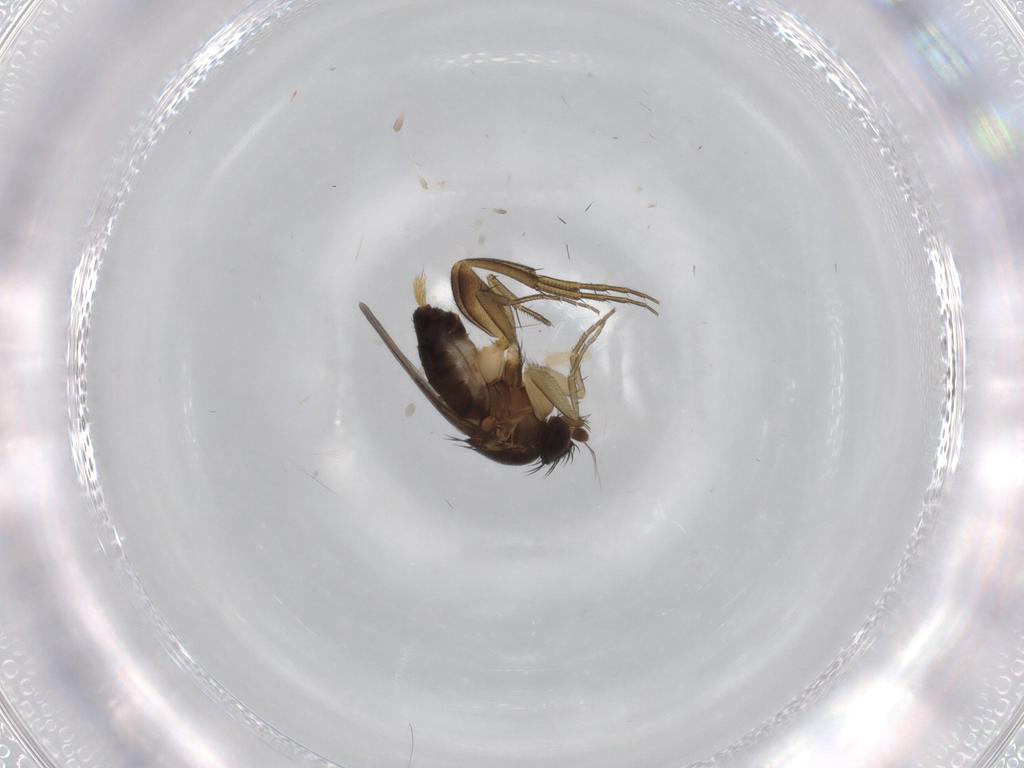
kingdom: Animalia
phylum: Arthropoda
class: Insecta
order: Diptera
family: Phoridae
